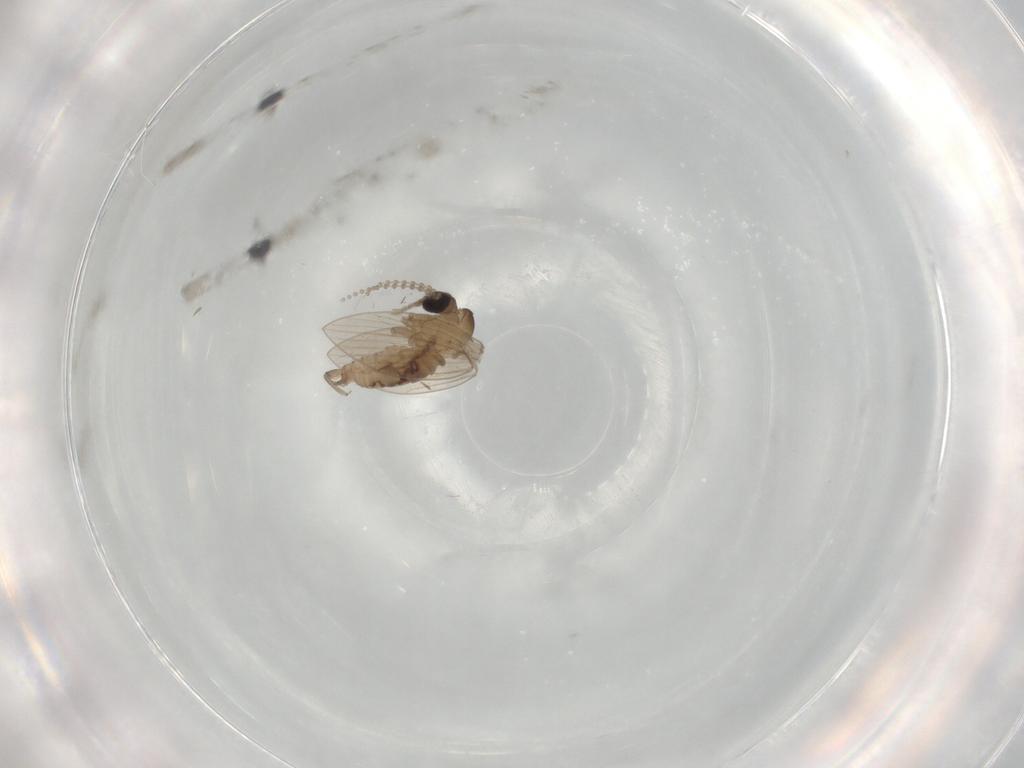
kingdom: Animalia
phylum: Arthropoda
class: Insecta
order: Diptera
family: Psychodidae
